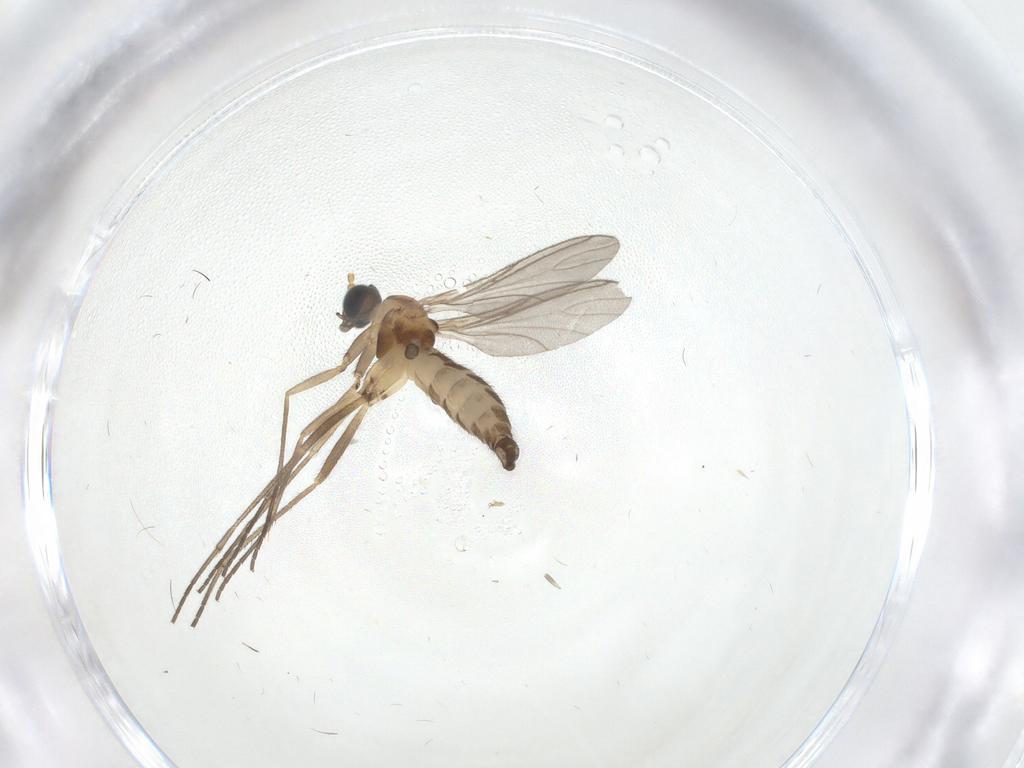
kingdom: Animalia
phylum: Arthropoda
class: Insecta
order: Diptera
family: Sciaridae
